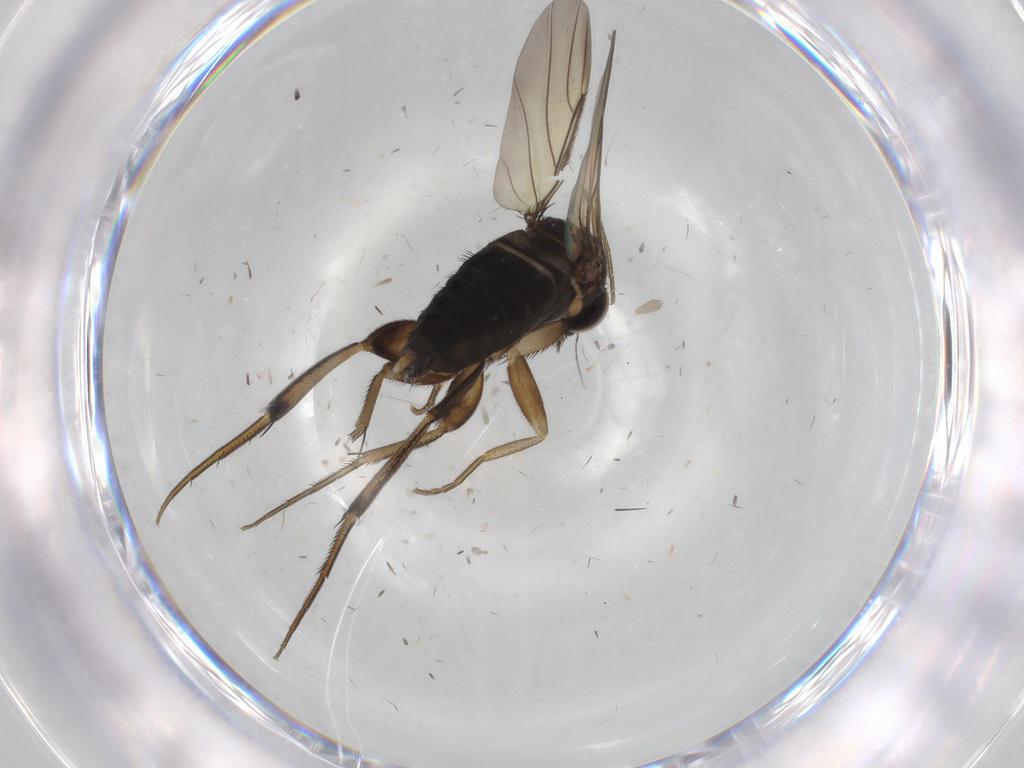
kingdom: Animalia
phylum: Arthropoda
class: Insecta
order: Diptera
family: Phoridae
